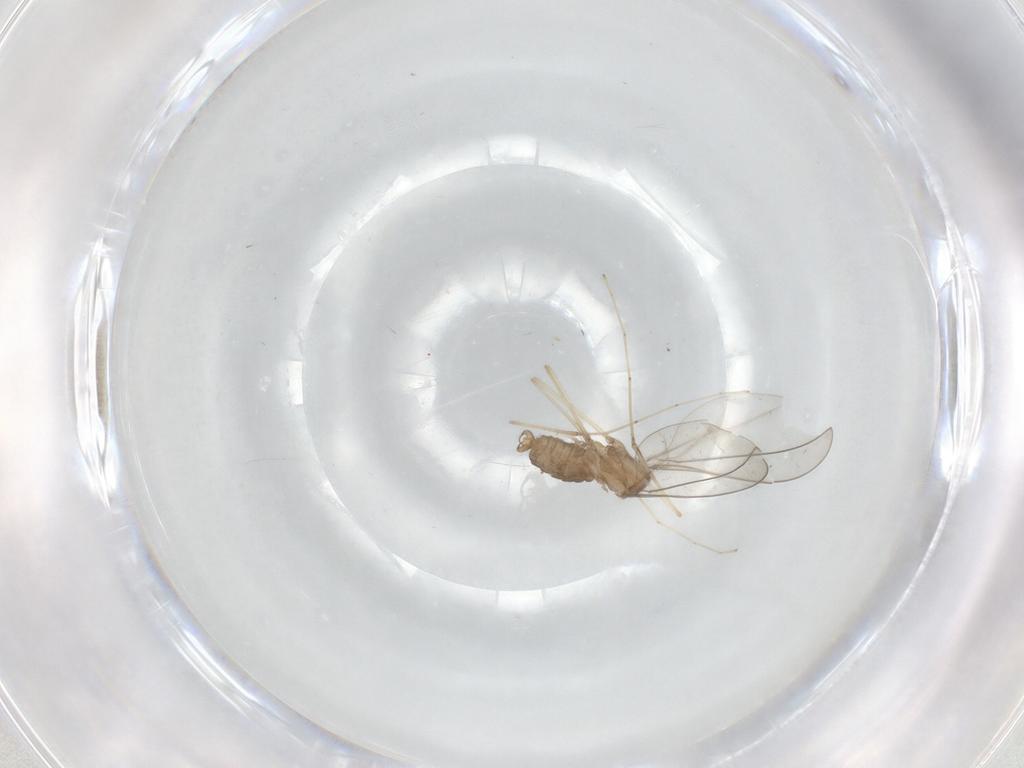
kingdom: Animalia
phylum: Arthropoda
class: Insecta
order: Diptera
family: Cecidomyiidae
